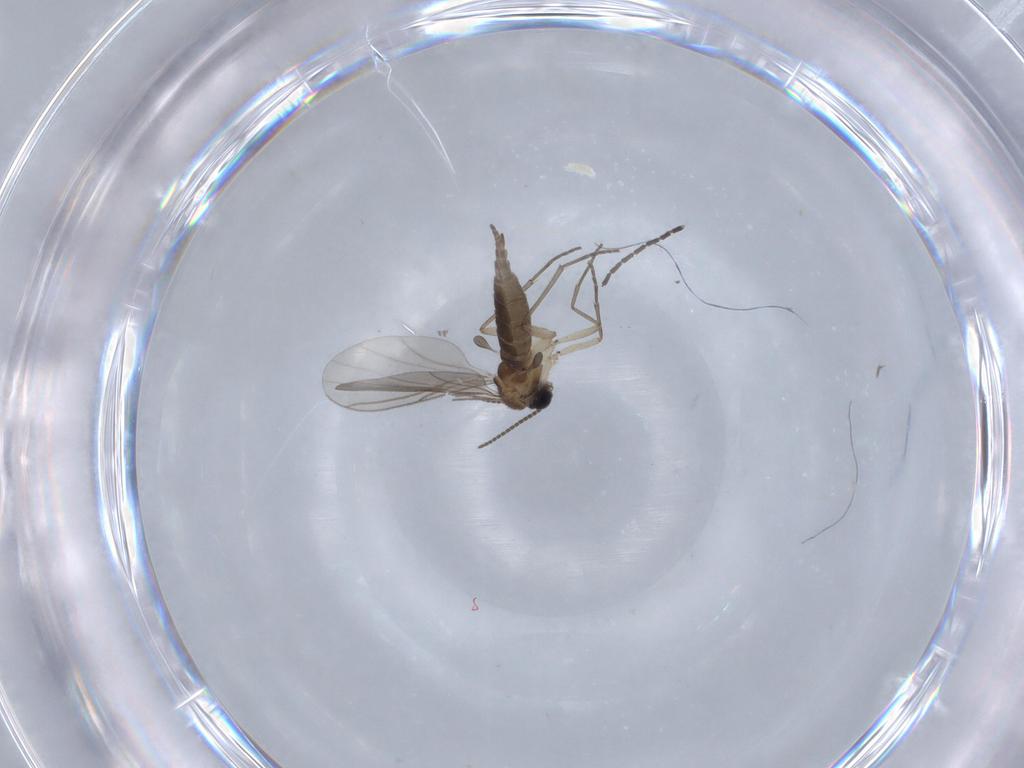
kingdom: Animalia
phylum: Arthropoda
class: Insecta
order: Diptera
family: Sciaridae
